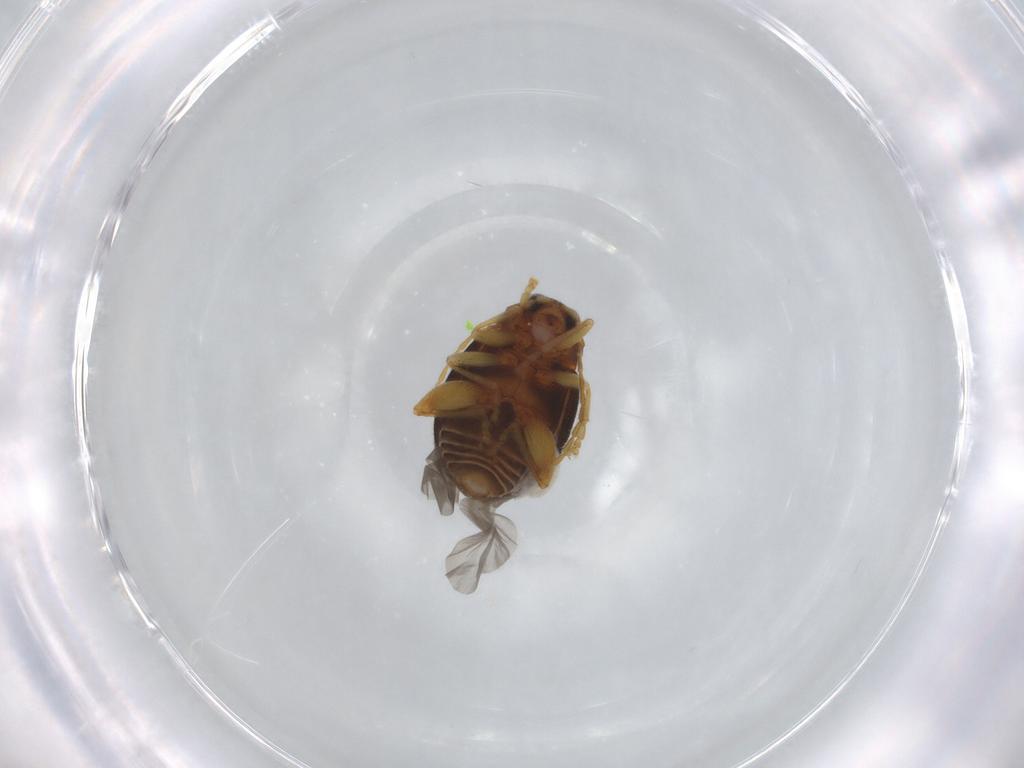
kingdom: Animalia
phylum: Arthropoda
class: Insecta
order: Coleoptera
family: Chrysomelidae
